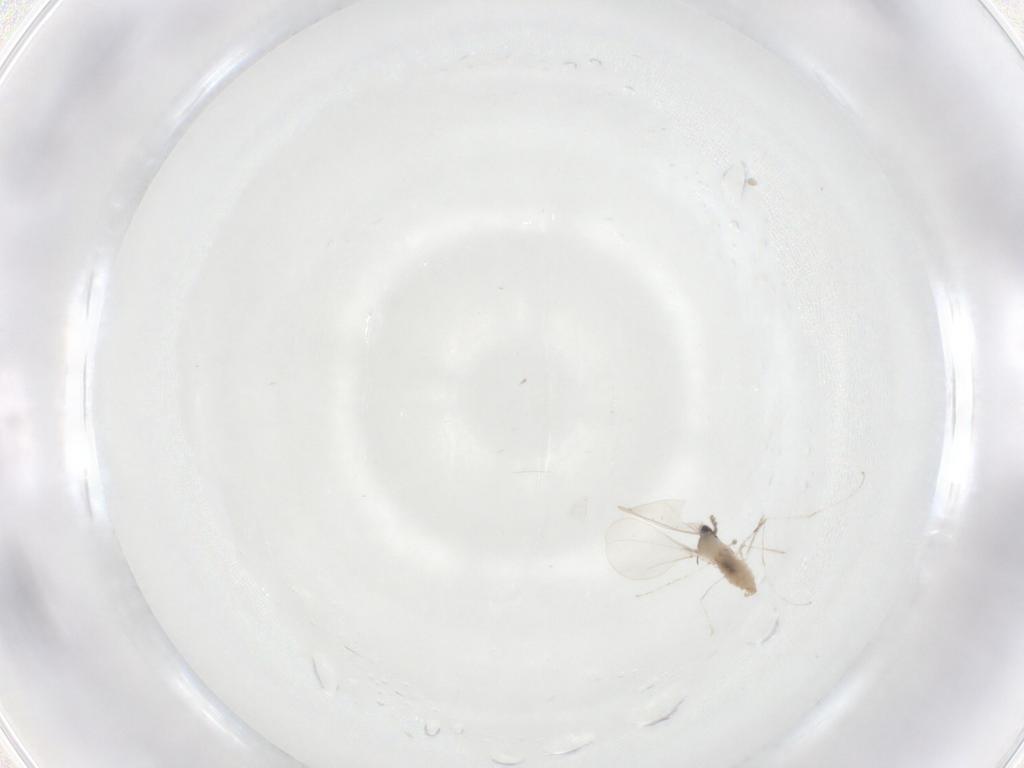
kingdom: Animalia
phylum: Arthropoda
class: Insecta
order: Diptera
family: Cecidomyiidae
